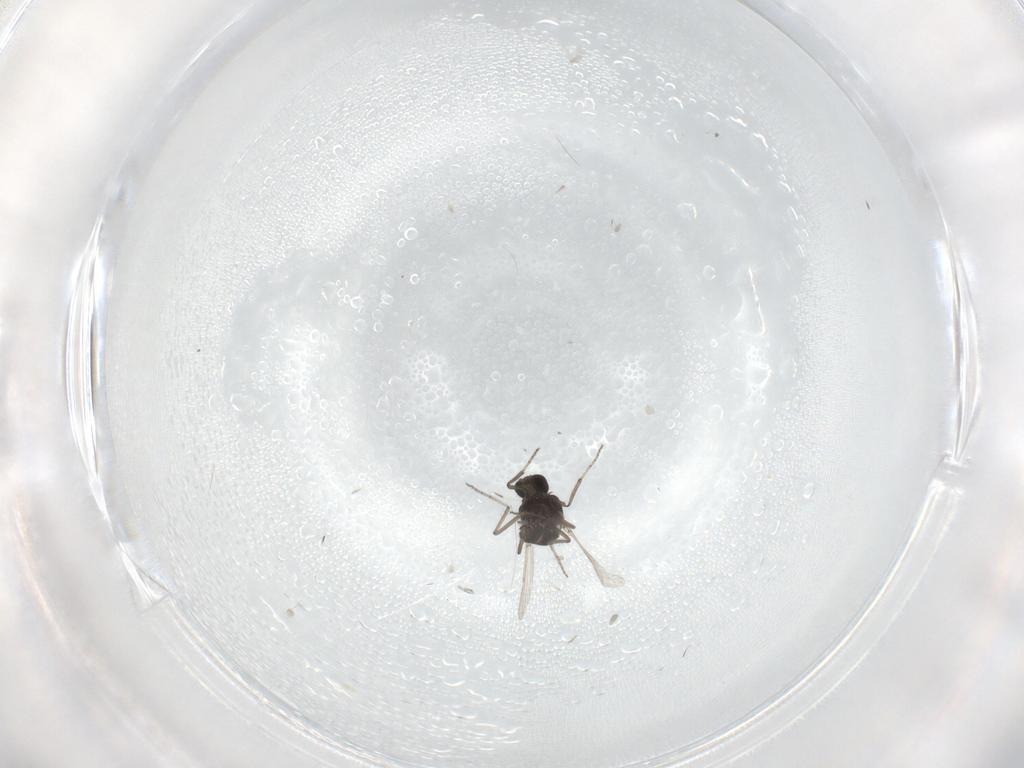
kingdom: Animalia
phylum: Arthropoda
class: Insecta
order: Diptera
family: Ceratopogonidae
